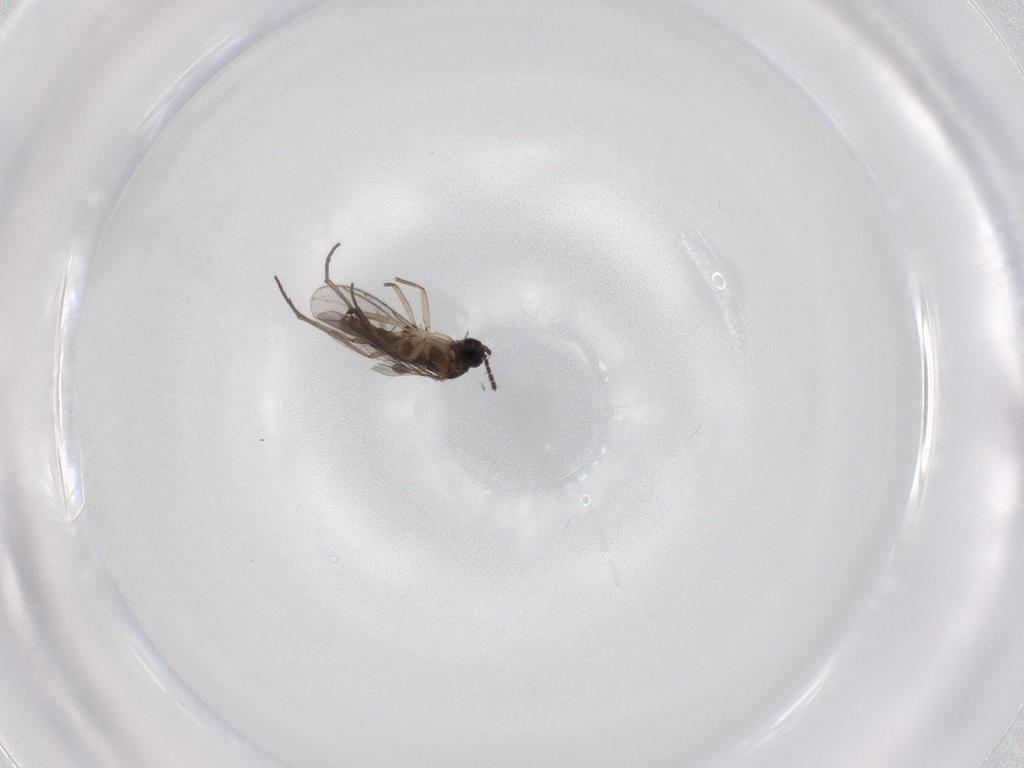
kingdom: Animalia
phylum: Arthropoda
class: Insecta
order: Diptera
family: Sciaridae
